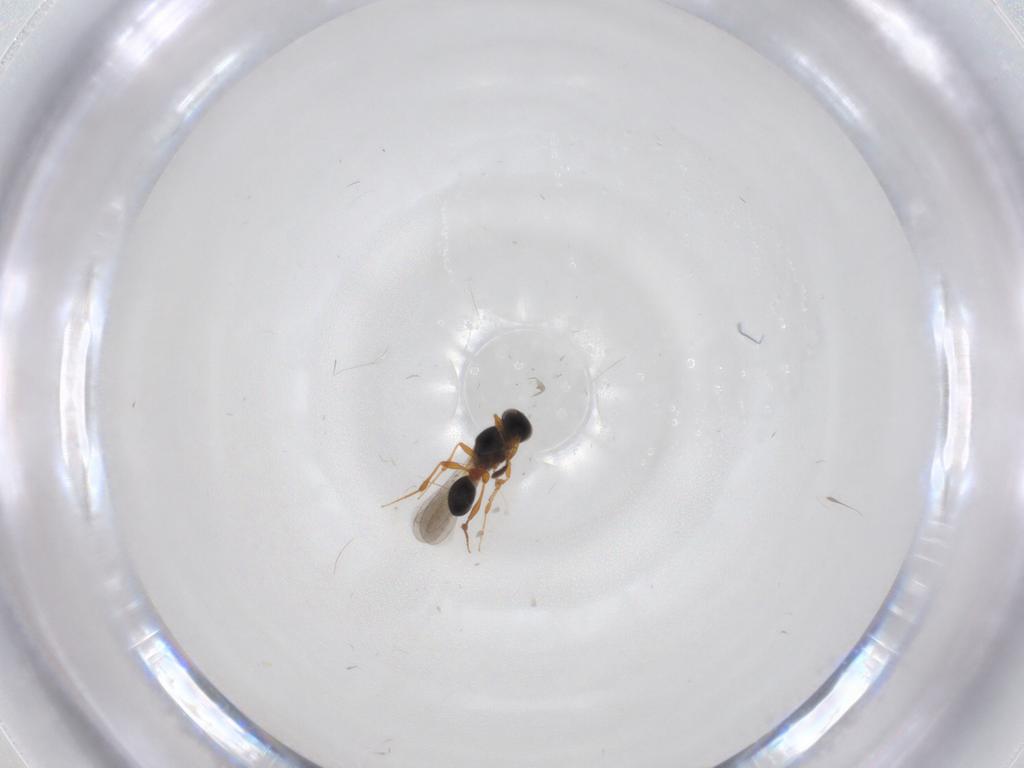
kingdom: Animalia
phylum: Arthropoda
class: Insecta
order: Hymenoptera
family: Platygastridae
